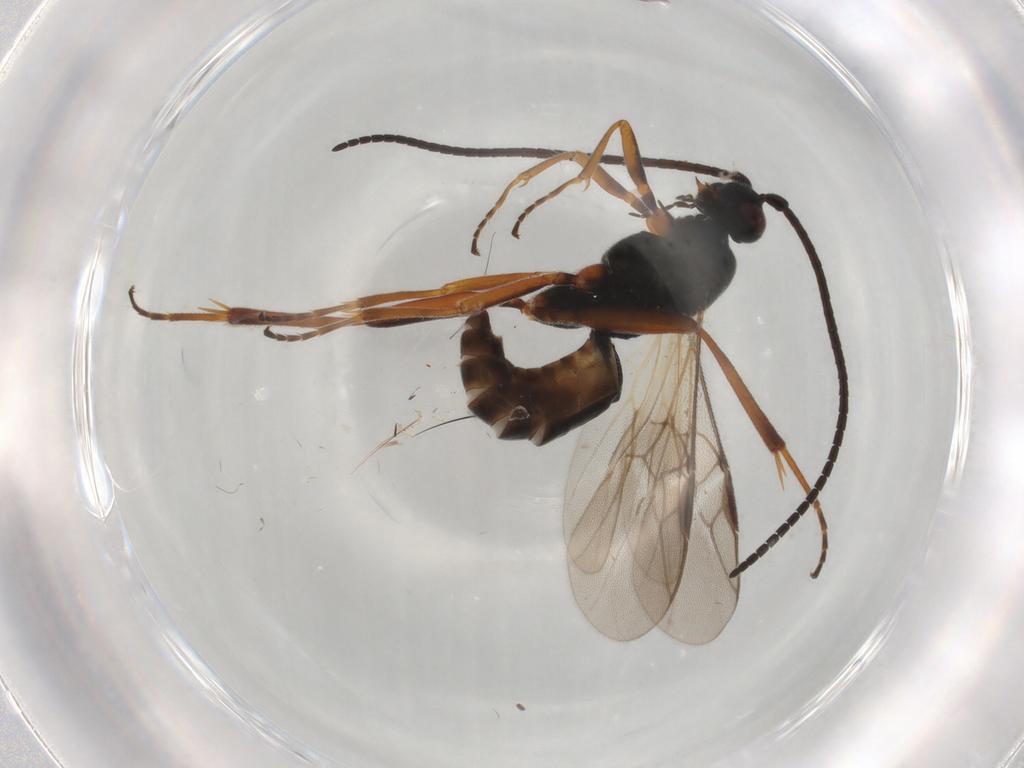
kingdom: Animalia
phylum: Arthropoda
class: Insecta
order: Hymenoptera
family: Braconidae
